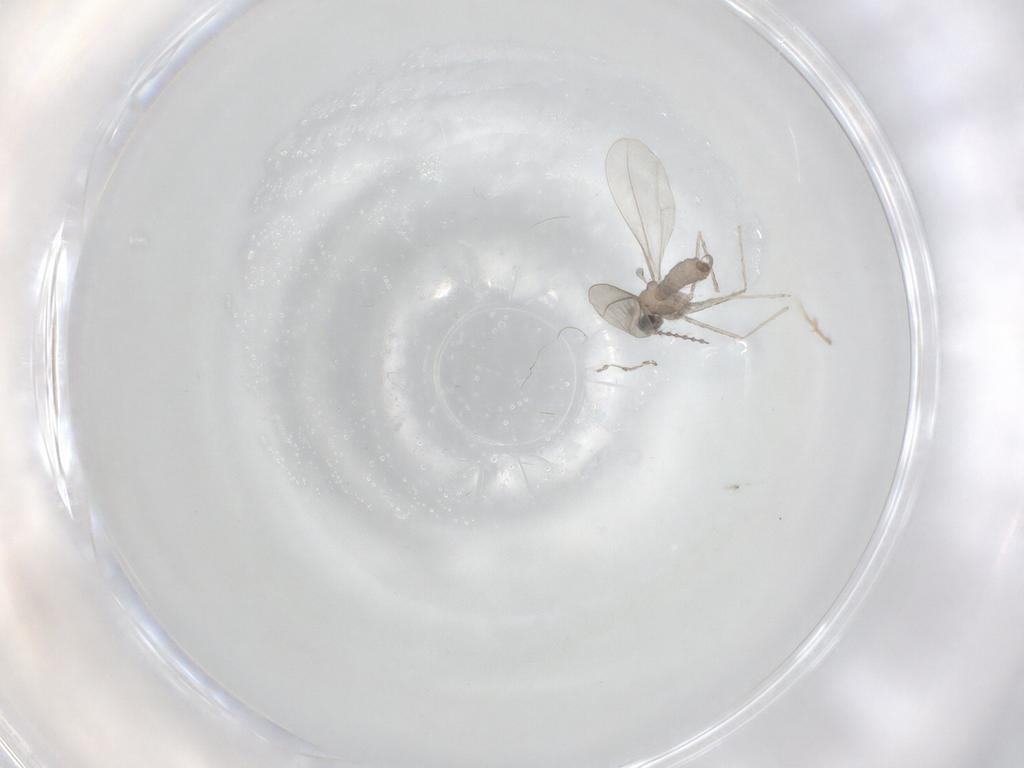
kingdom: Animalia
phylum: Arthropoda
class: Insecta
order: Diptera
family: Cecidomyiidae
